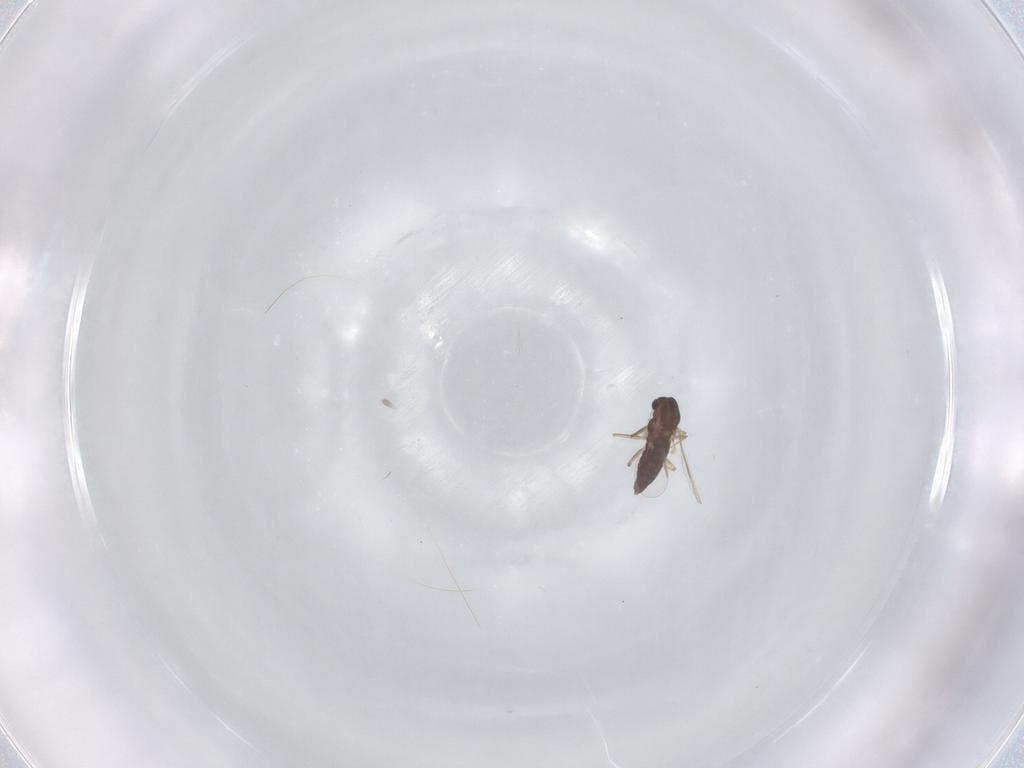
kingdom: Animalia
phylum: Arthropoda
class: Insecta
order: Diptera
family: Chironomidae
